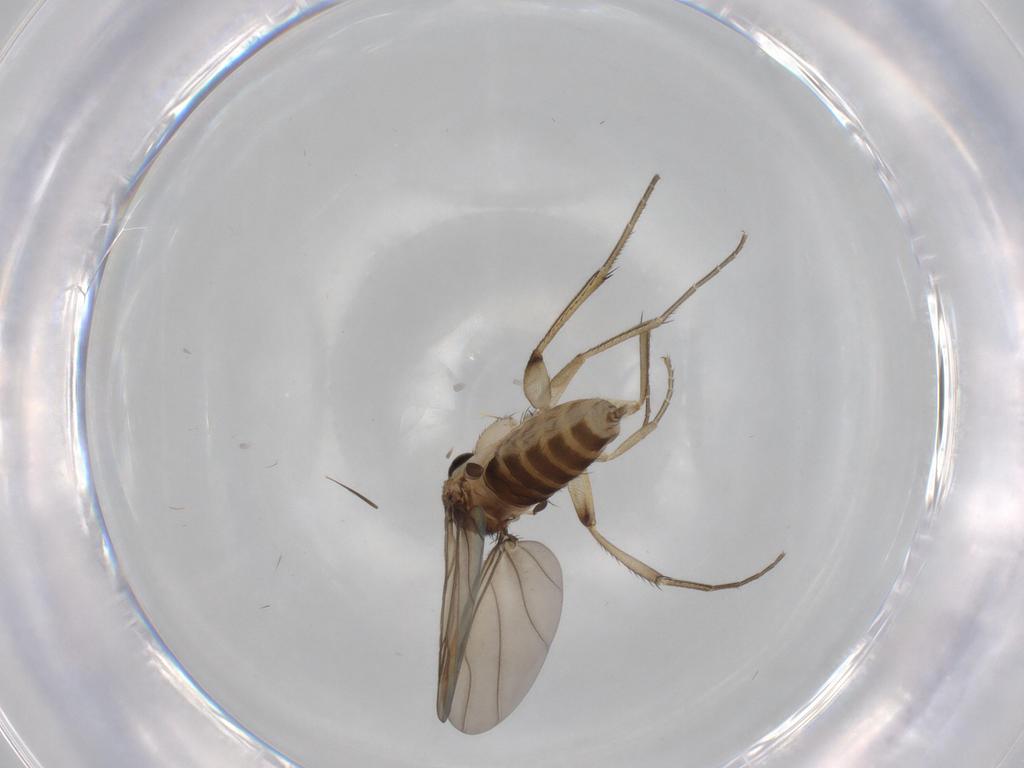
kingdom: Animalia
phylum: Arthropoda
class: Insecta
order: Diptera
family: Phoridae
